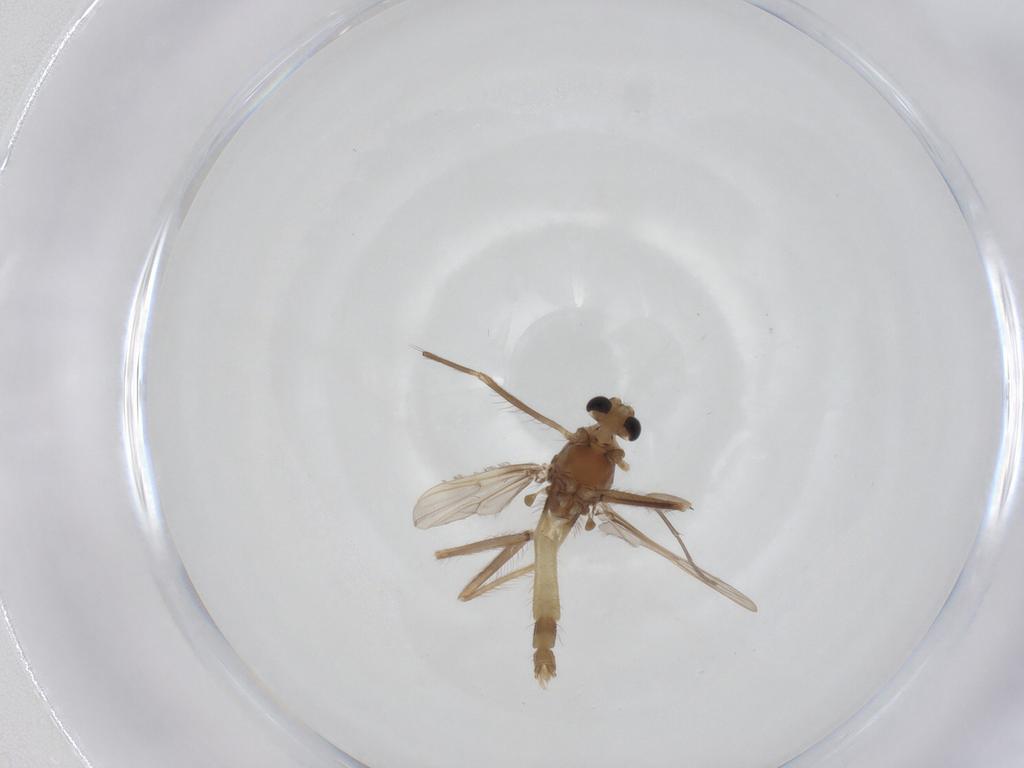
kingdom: Animalia
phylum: Arthropoda
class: Insecta
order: Diptera
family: Chironomidae
